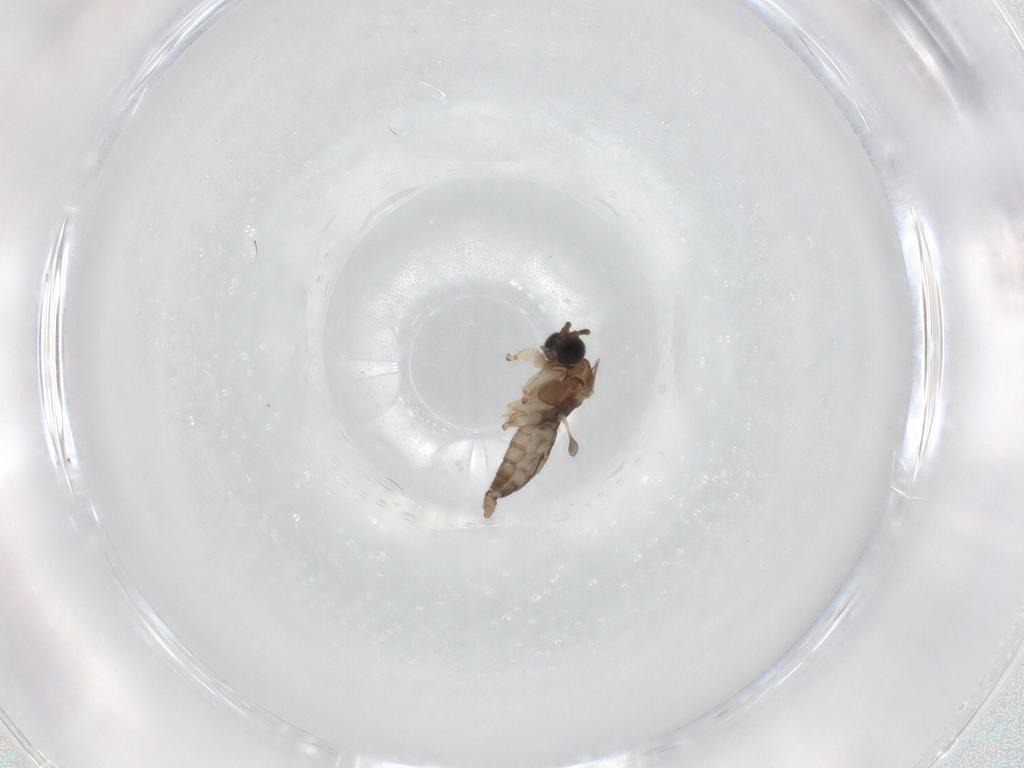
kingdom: Animalia
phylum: Arthropoda
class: Insecta
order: Diptera
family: Sciaridae
